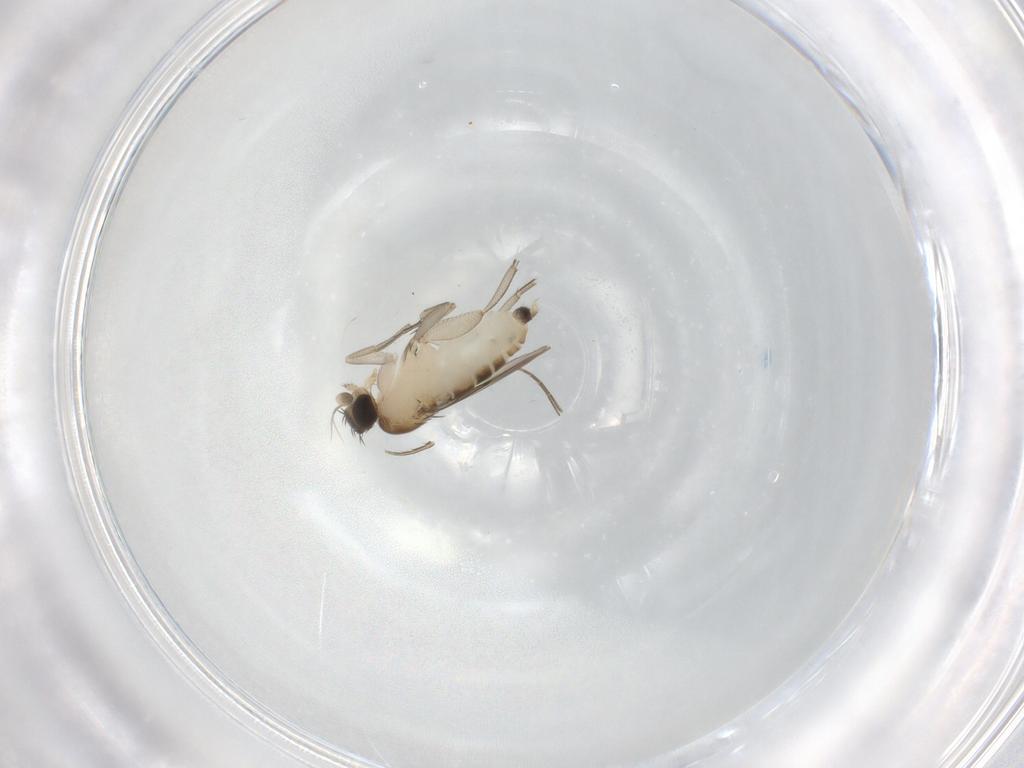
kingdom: Animalia
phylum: Arthropoda
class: Insecta
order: Diptera
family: Phoridae
